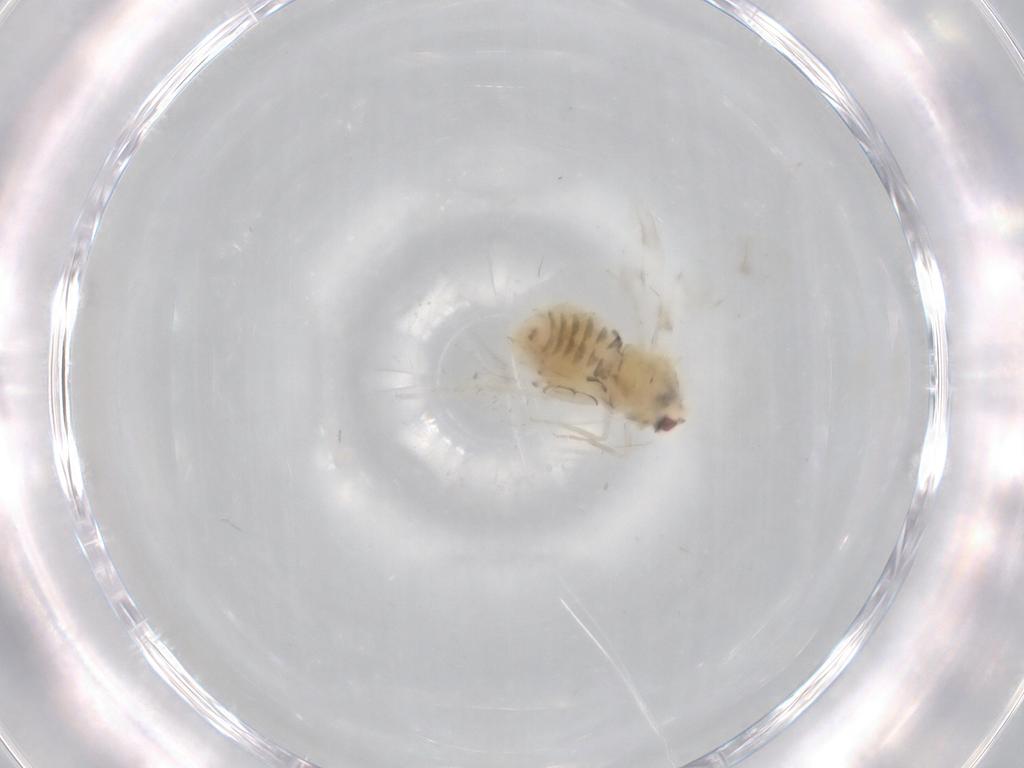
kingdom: Animalia
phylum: Arthropoda
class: Insecta
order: Hemiptera
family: Aleyrodidae
